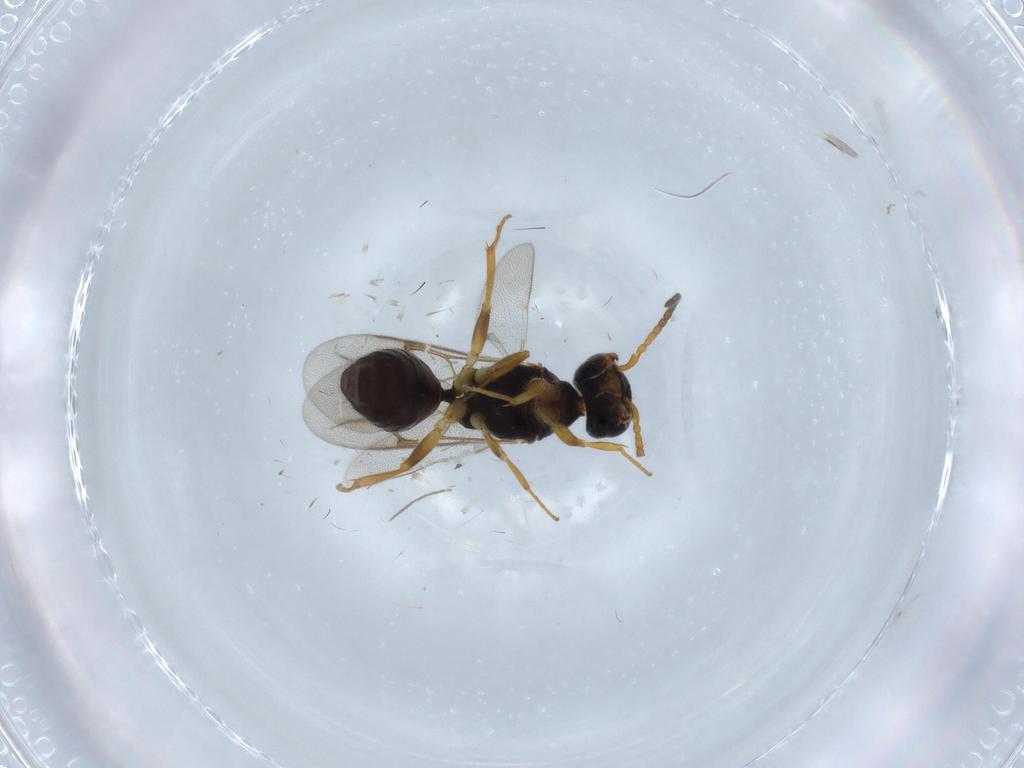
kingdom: Animalia
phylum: Arthropoda
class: Insecta
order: Hymenoptera
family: Bethylidae
